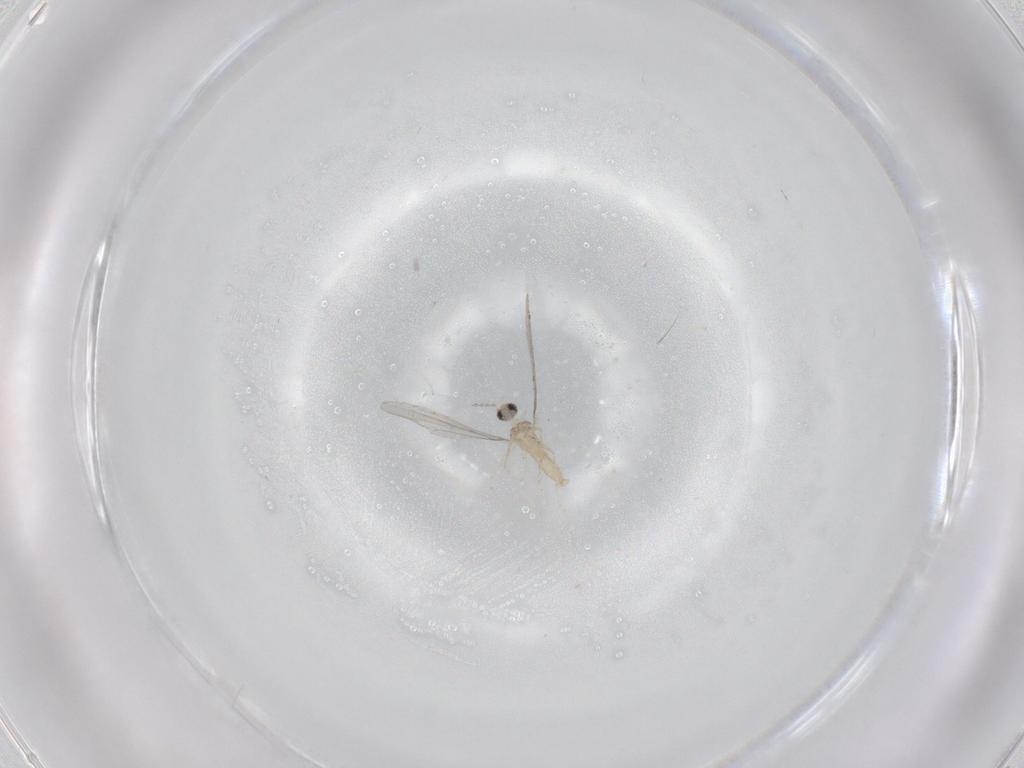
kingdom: Animalia
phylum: Arthropoda
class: Insecta
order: Diptera
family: Cecidomyiidae
